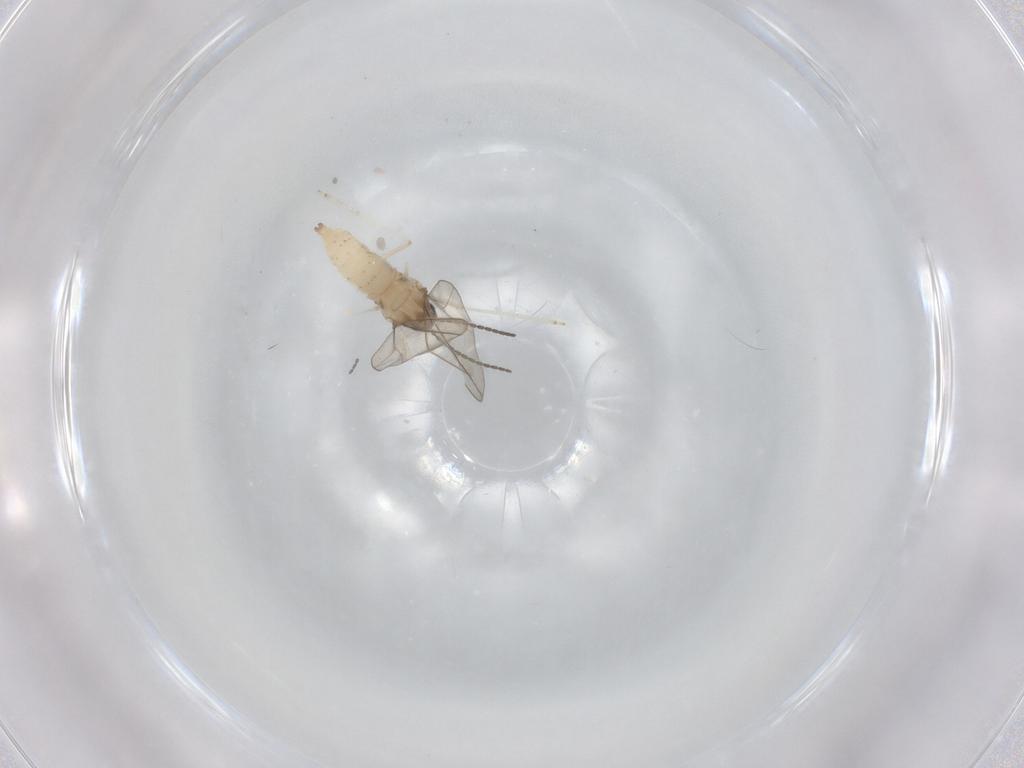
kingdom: Animalia
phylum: Arthropoda
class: Insecta
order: Diptera
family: Cecidomyiidae
